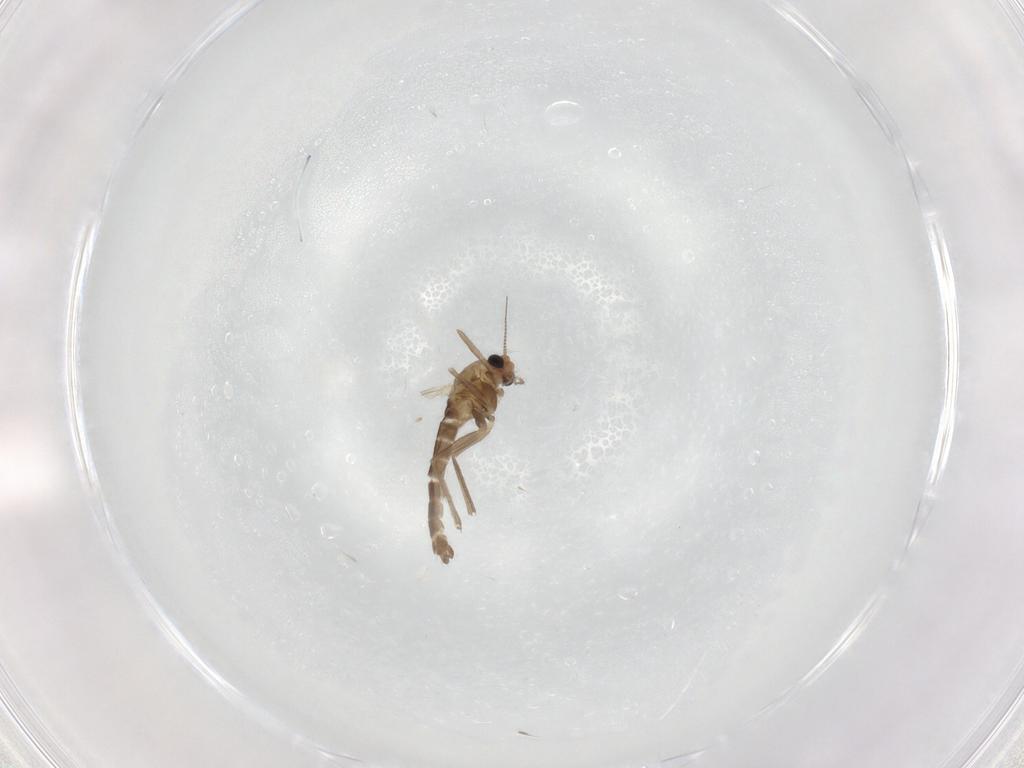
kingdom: Animalia
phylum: Arthropoda
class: Insecta
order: Diptera
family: Chironomidae
